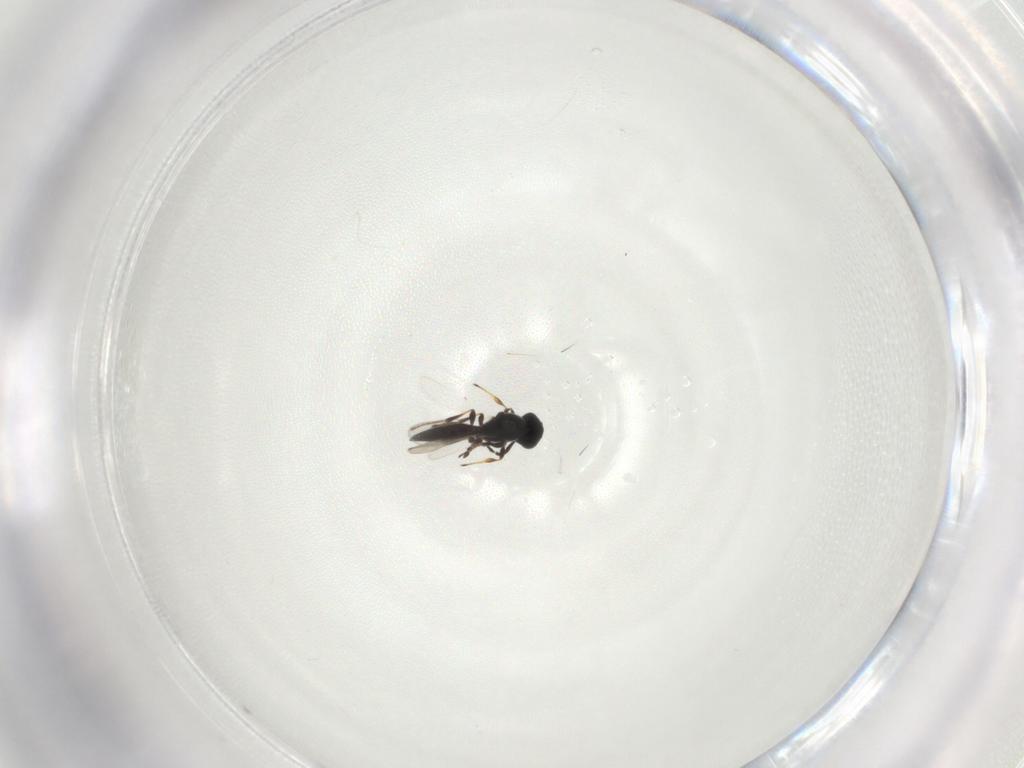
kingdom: Animalia
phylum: Arthropoda
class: Insecta
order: Hymenoptera
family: Platygastridae
